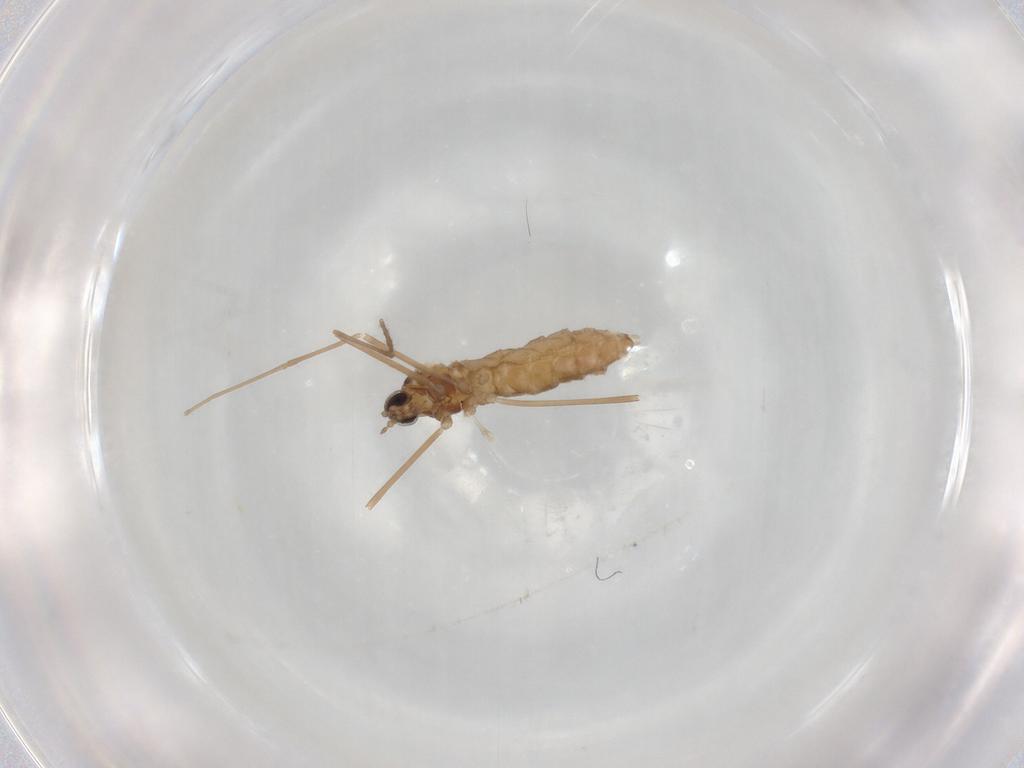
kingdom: Animalia
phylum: Arthropoda
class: Insecta
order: Diptera
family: Cecidomyiidae
